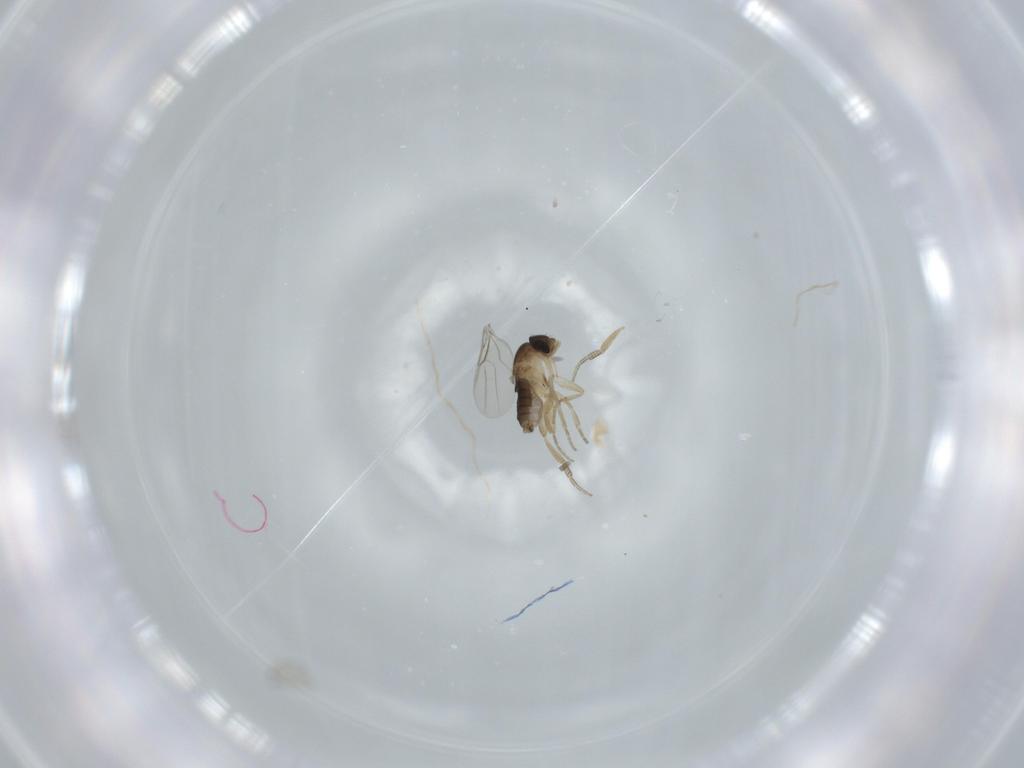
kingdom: Animalia
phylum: Arthropoda
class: Insecta
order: Diptera
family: Phoridae
